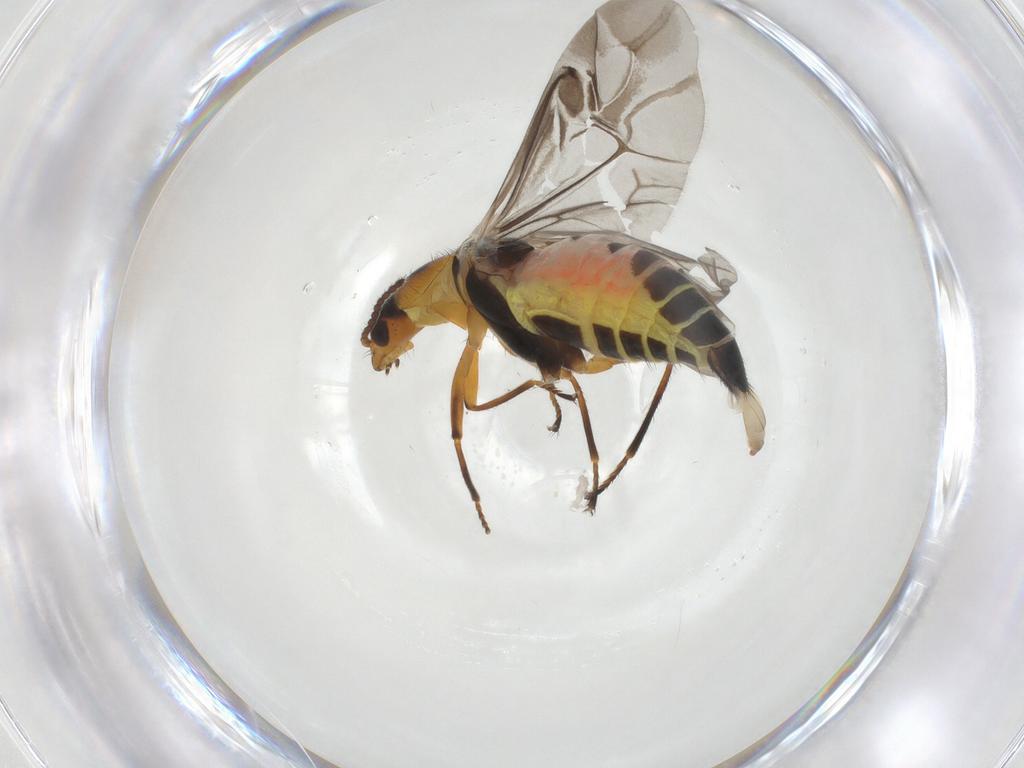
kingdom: Animalia
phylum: Arthropoda
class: Insecta
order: Coleoptera
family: Melyridae
